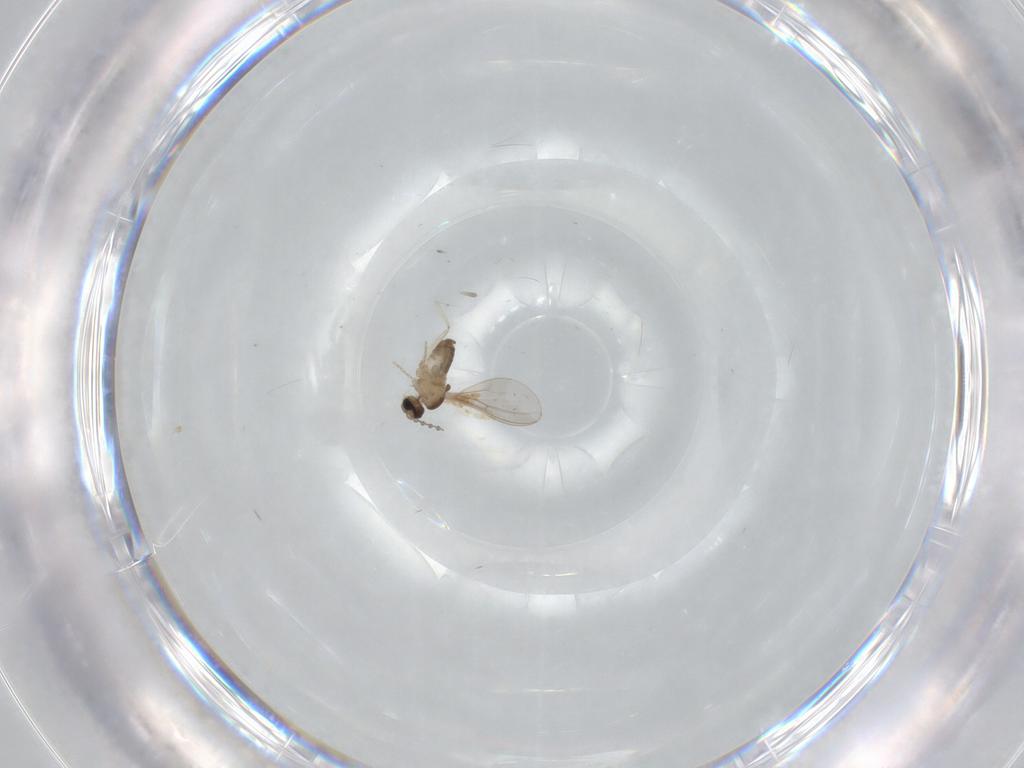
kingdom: Animalia
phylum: Arthropoda
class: Insecta
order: Diptera
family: Cecidomyiidae
